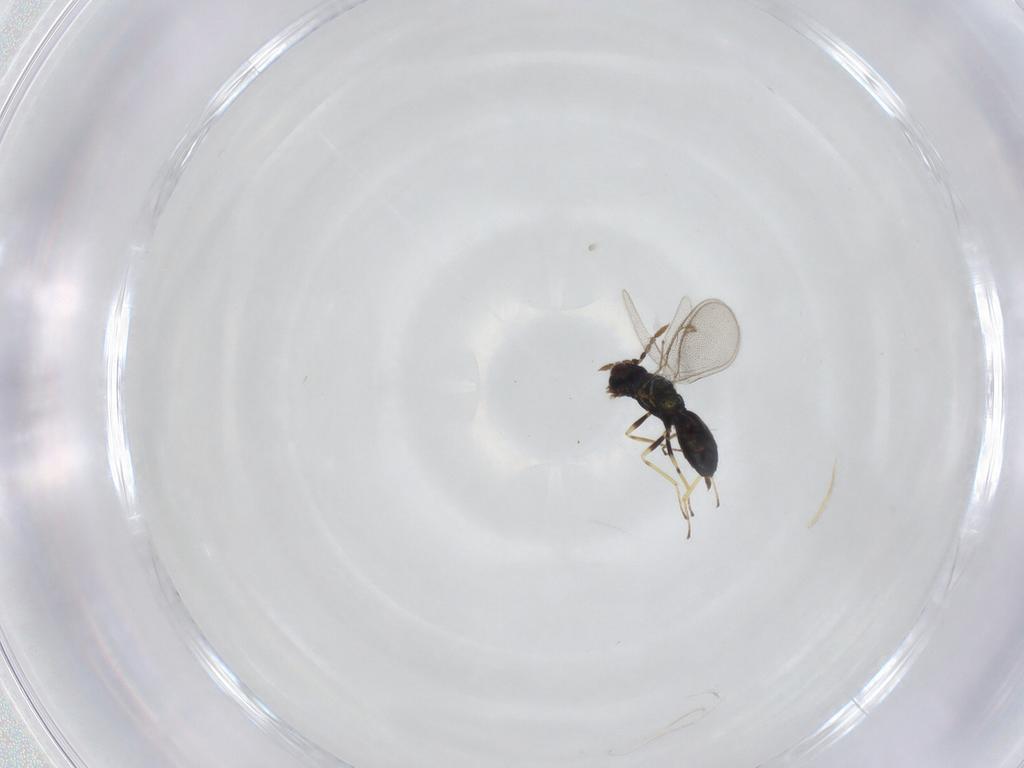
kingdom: Animalia
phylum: Arthropoda
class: Insecta
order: Hymenoptera
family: Eulophidae
